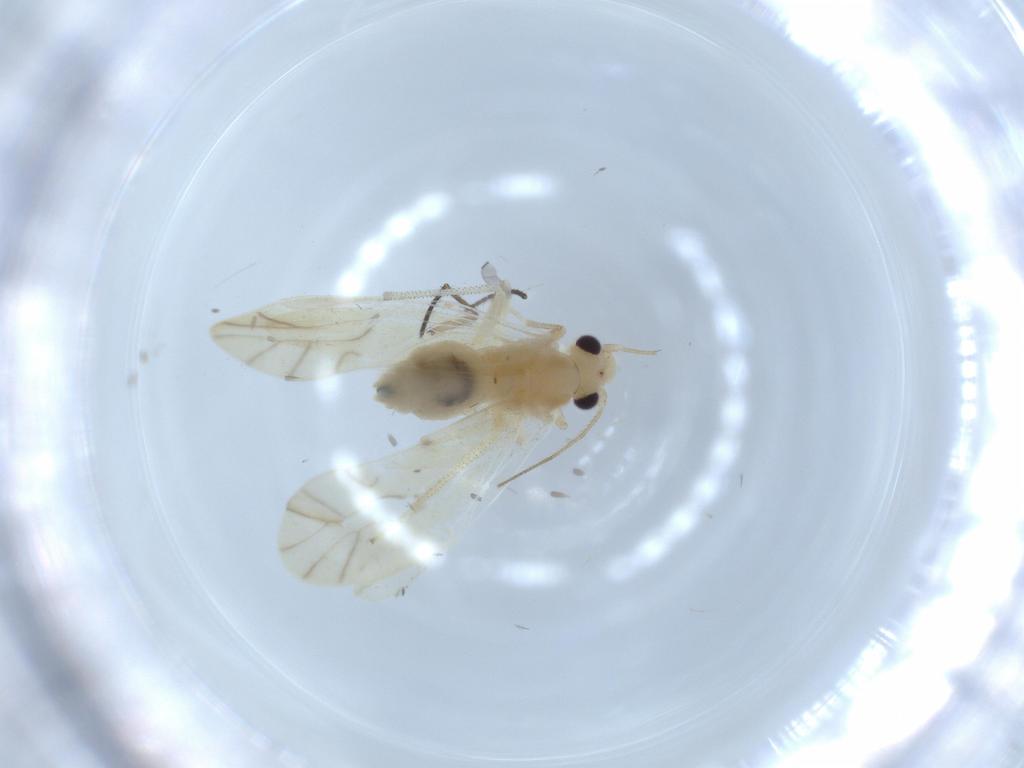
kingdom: Animalia
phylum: Arthropoda
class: Insecta
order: Psocodea
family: Caeciliusidae
